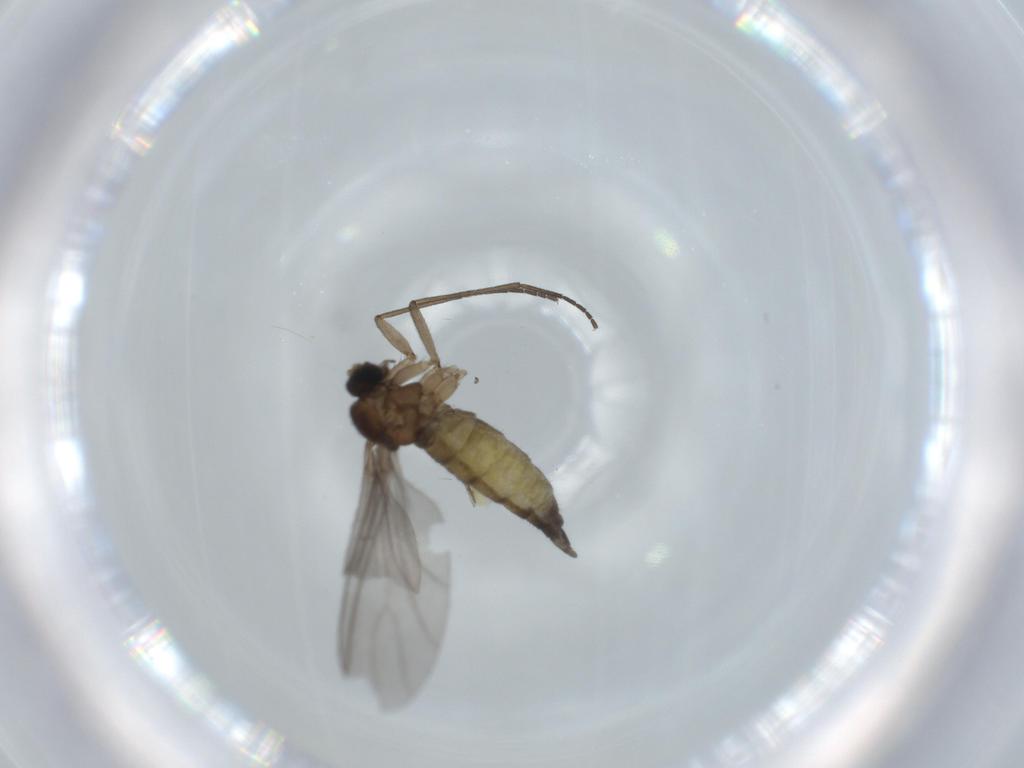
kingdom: Animalia
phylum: Arthropoda
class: Insecta
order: Diptera
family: Sciaridae
